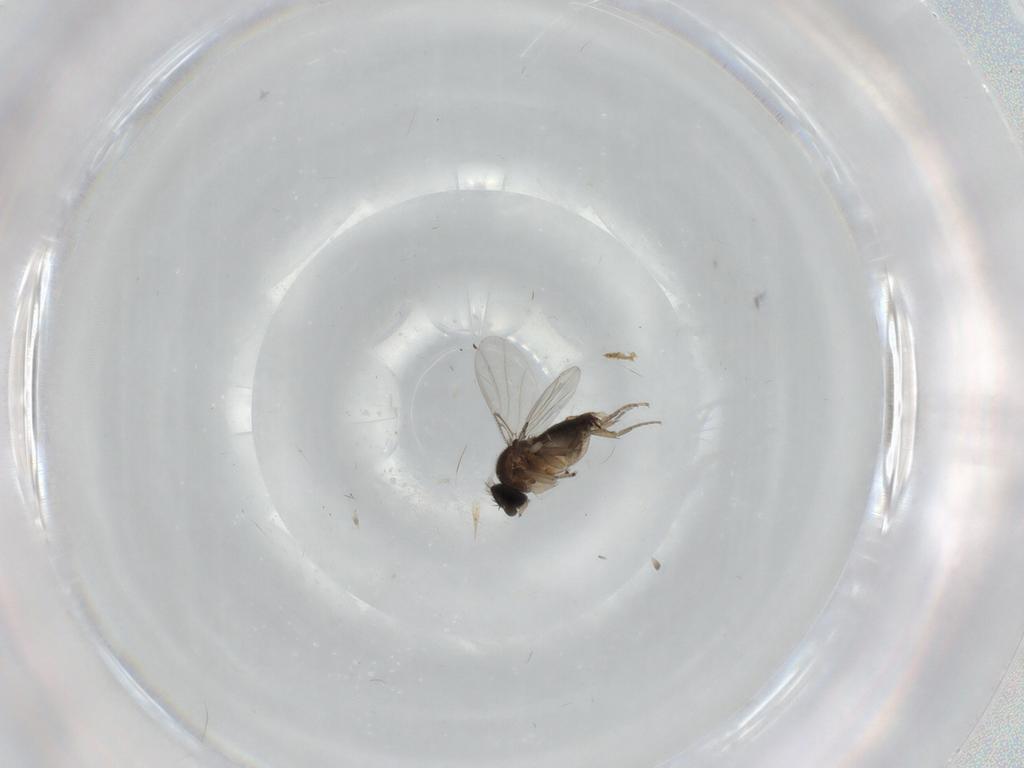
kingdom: Animalia
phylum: Arthropoda
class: Insecta
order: Diptera
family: Phoridae
